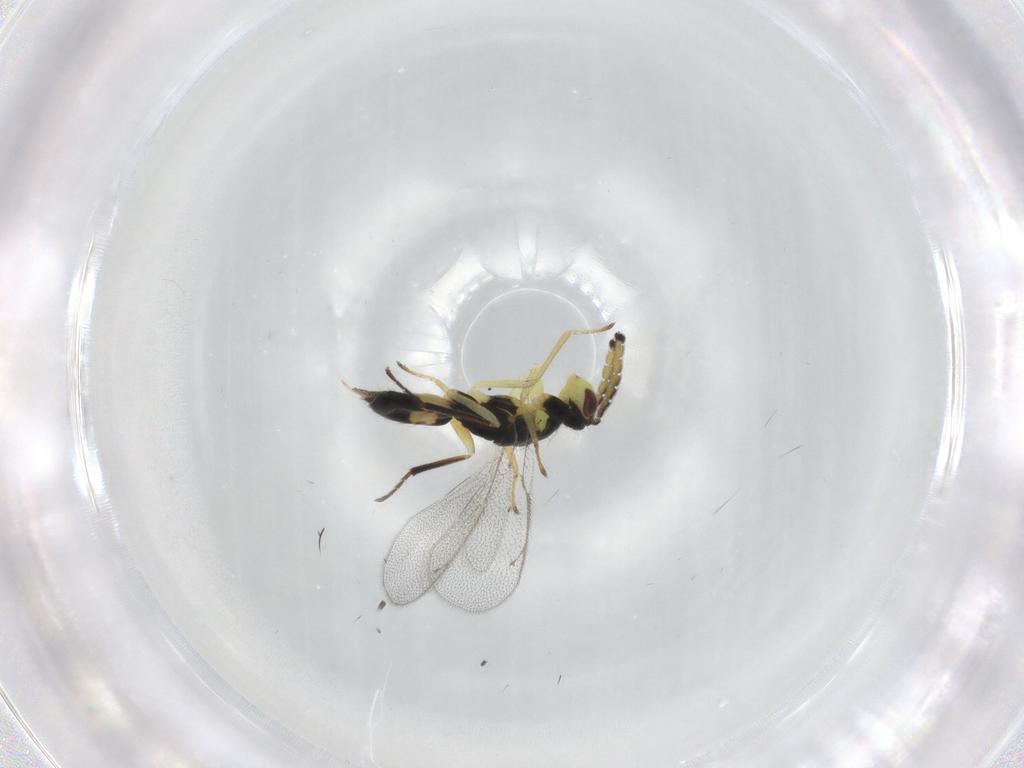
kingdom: Animalia
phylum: Arthropoda
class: Insecta
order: Hymenoptera
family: Eulophidae
